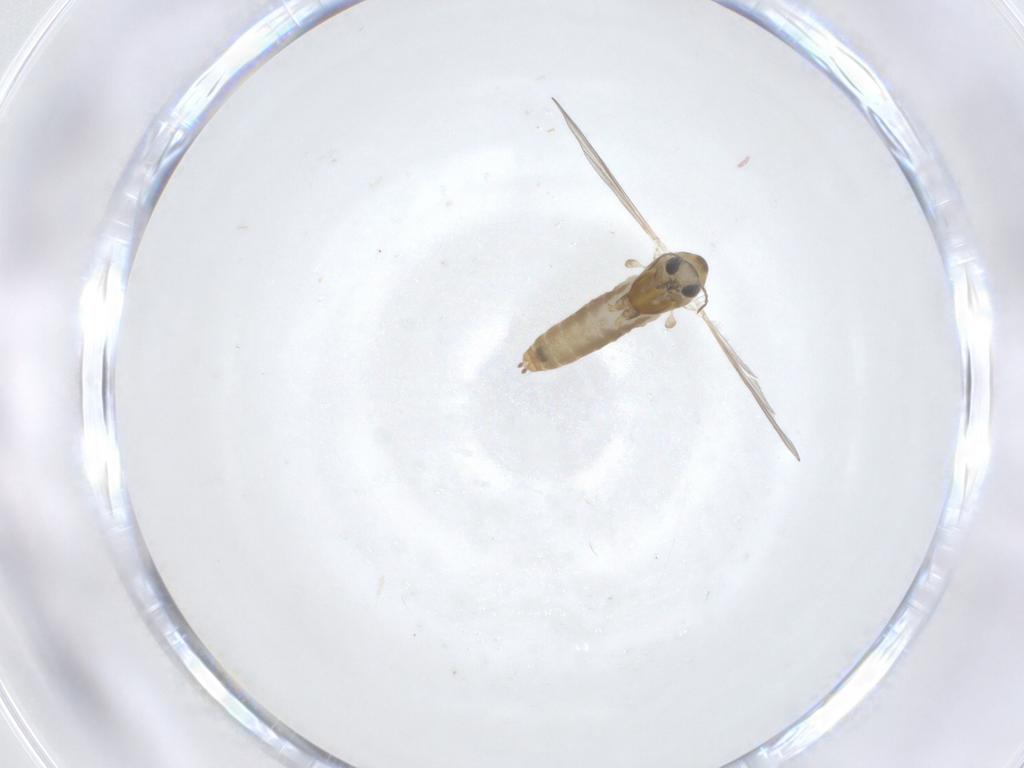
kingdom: Animalia
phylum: Arthropoda
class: Insecta
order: Diptera
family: Chironomidae
